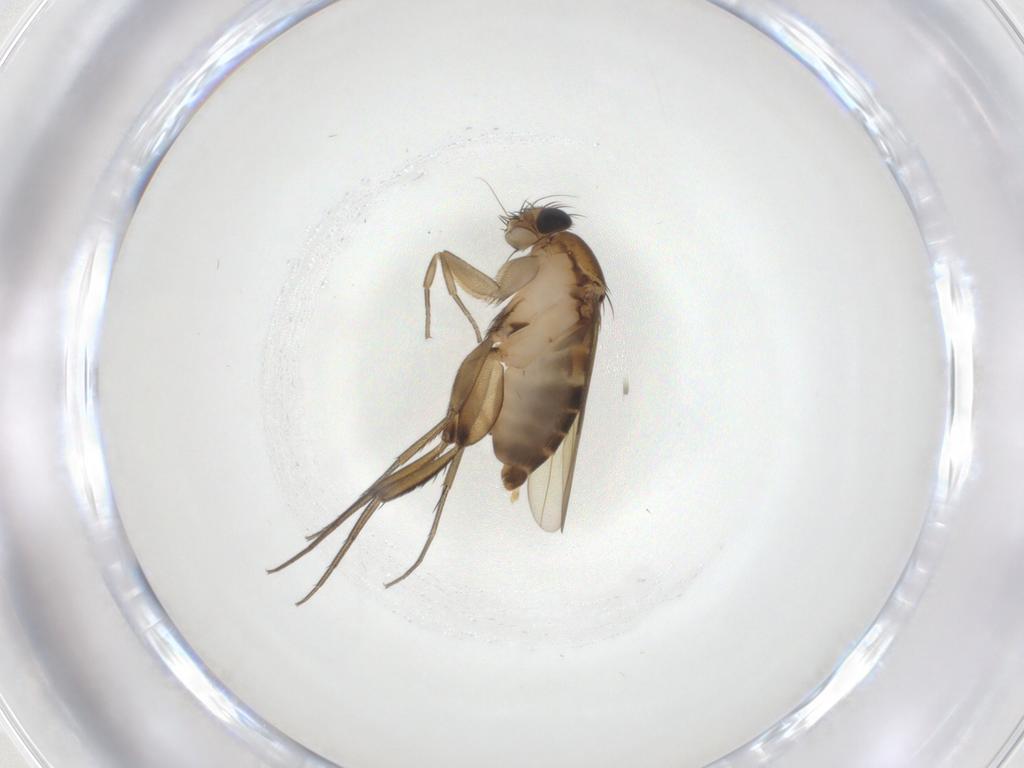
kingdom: Animalia
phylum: Arthropoda
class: Insecta
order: Diptera
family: Phoridae
